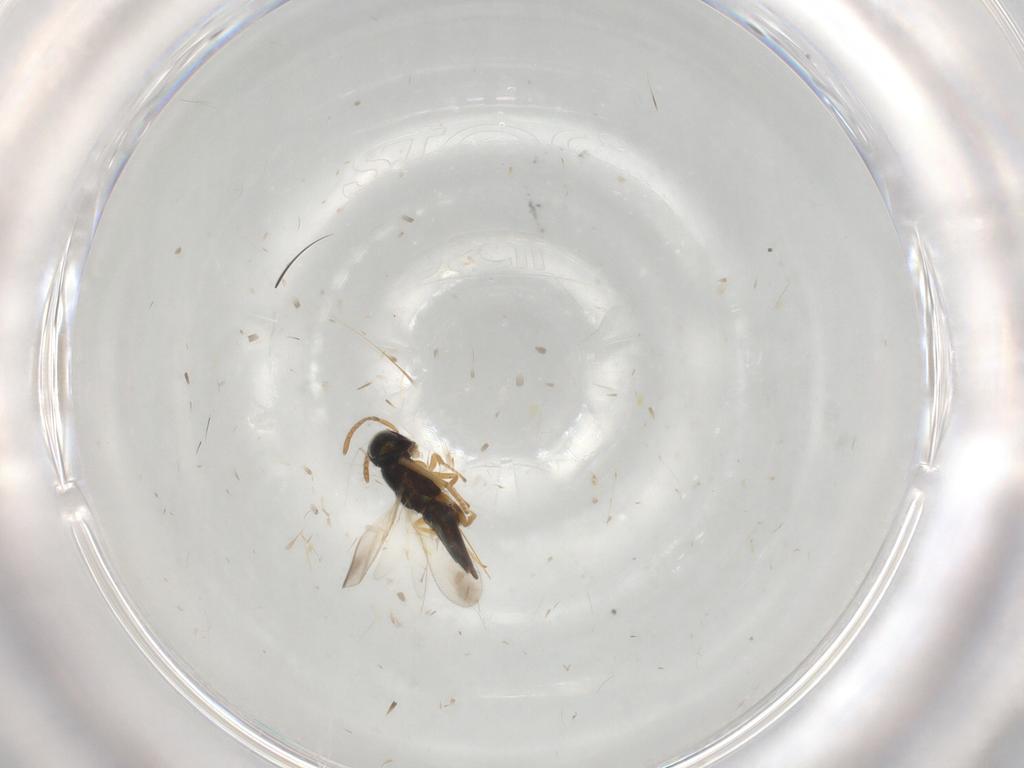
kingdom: Animalia
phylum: Arthropoda
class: Insecta
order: Hymenoptera
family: Encyrtidae
